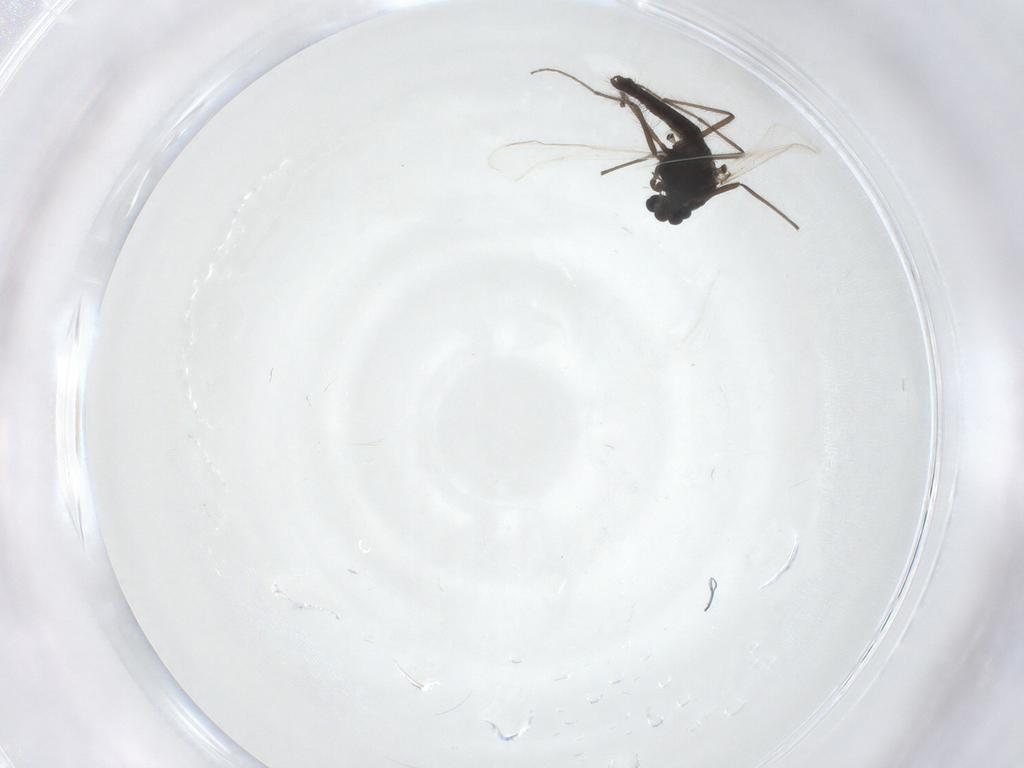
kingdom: Animalia
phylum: Arthropoda
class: Insecta
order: Diptera
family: Chironomidae
